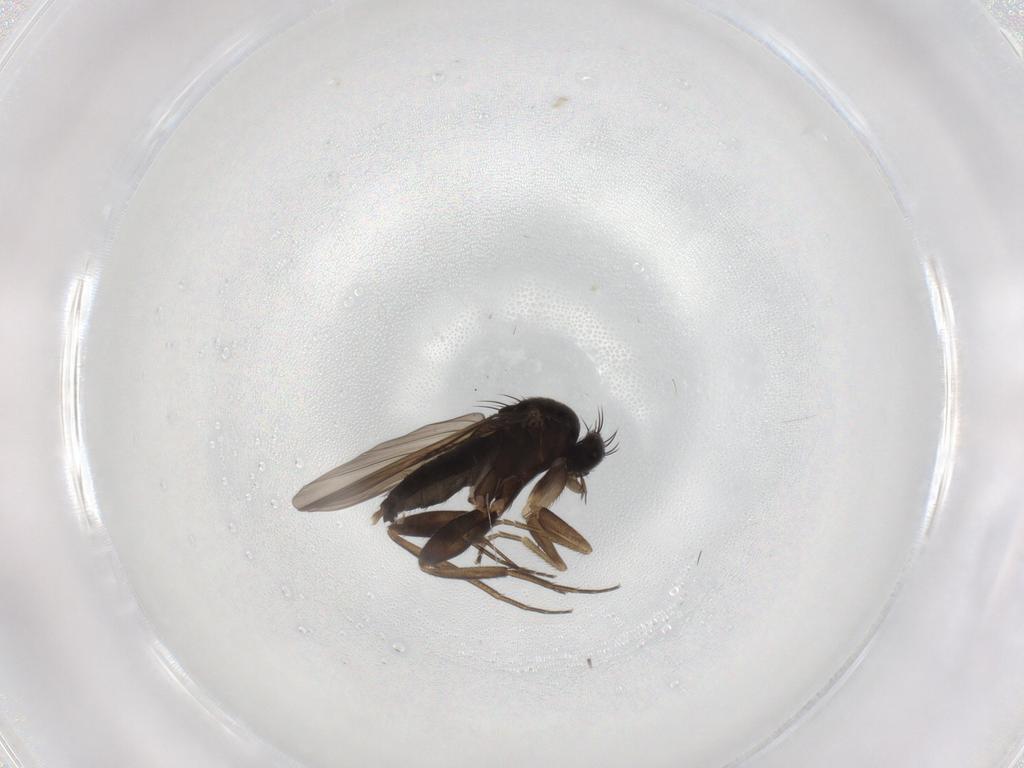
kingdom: Animalia
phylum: Arthropoda
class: Insecta
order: Diptera
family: Phoridae
